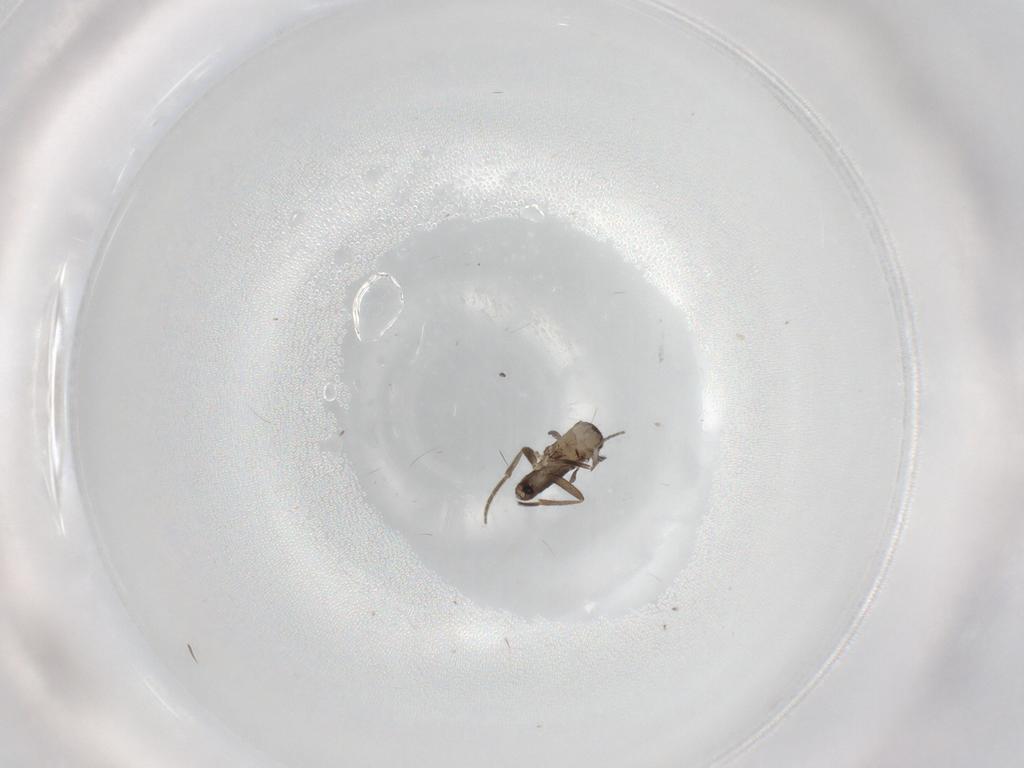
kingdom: Animalia
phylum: Arthropoda
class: Insecta
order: Diptera
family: Phoridae
